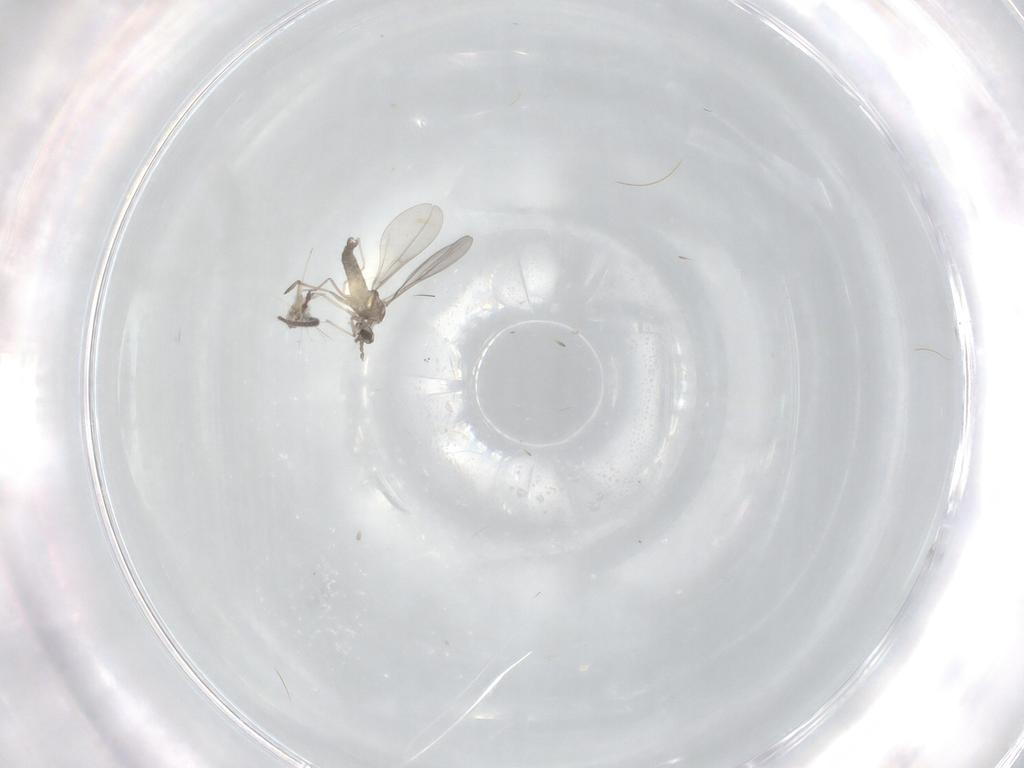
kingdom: Animalia
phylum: Arthropoda
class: Insecta
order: Diptera
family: Cecidomyiidae
